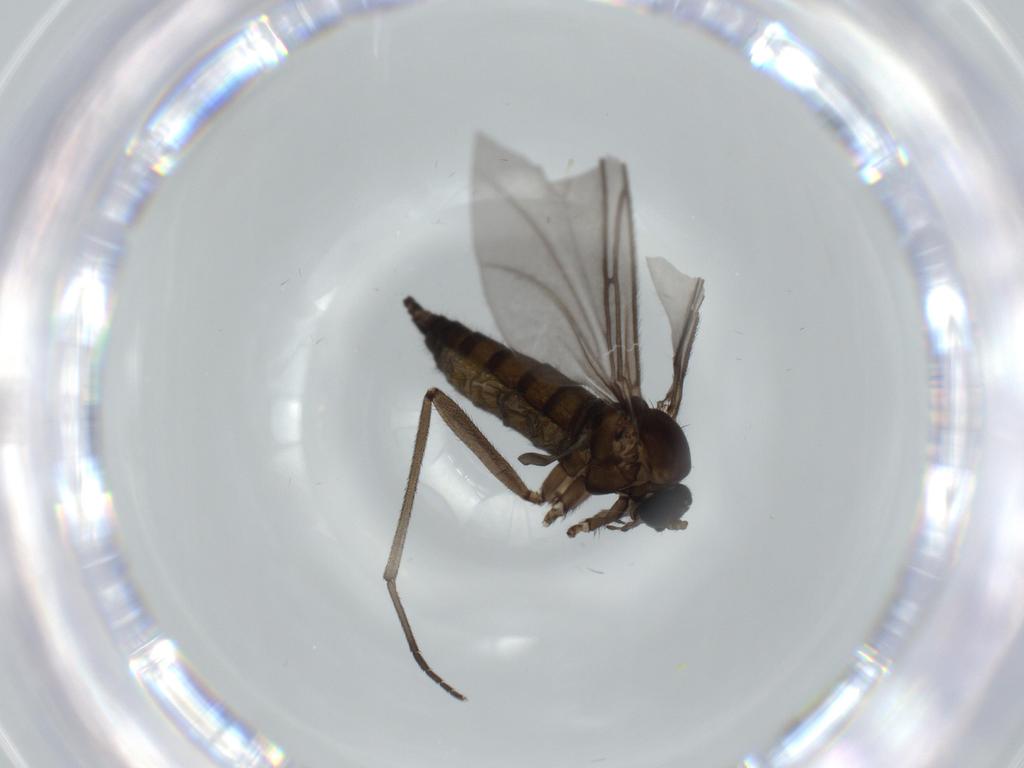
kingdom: Animalia
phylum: Arthropoda
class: Insecta
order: Diptera
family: Sciaridae
